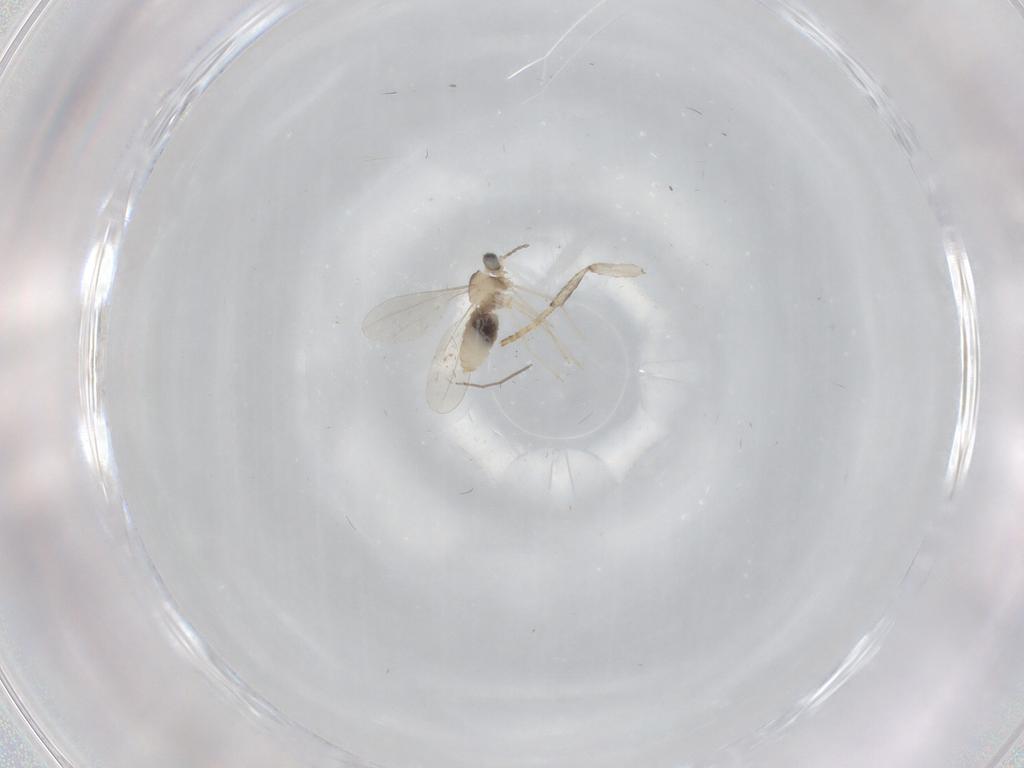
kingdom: Animalia
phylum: Arthropoda
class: Insecta
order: Diptera
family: Cecidomyiidae
